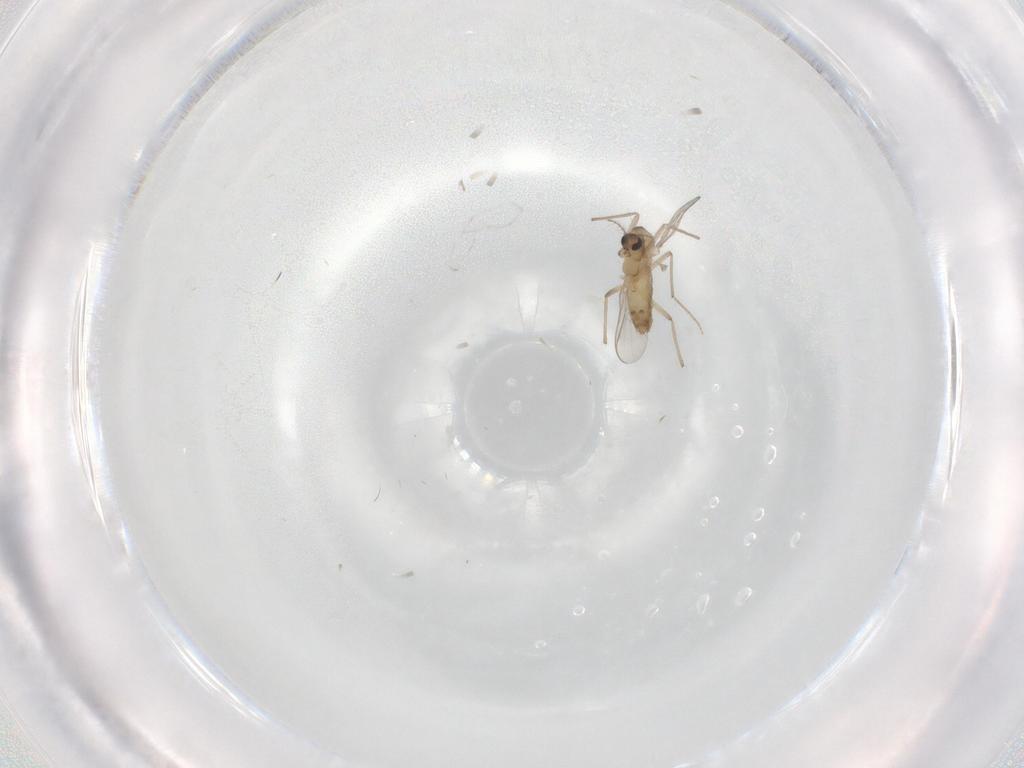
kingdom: Animalia
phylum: Arthropoda
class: Insecta
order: Diptera
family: Chironomidae
